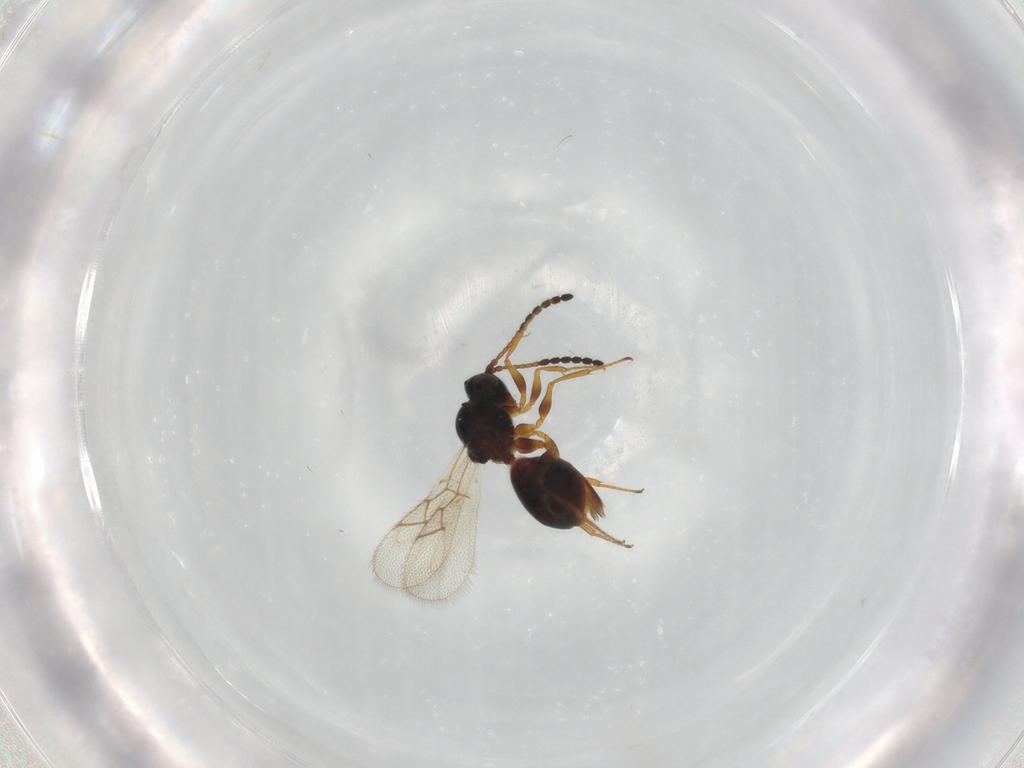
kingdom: Animalia
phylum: Arthropoda
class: Insecta
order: Hymenoptera
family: Figitidae
